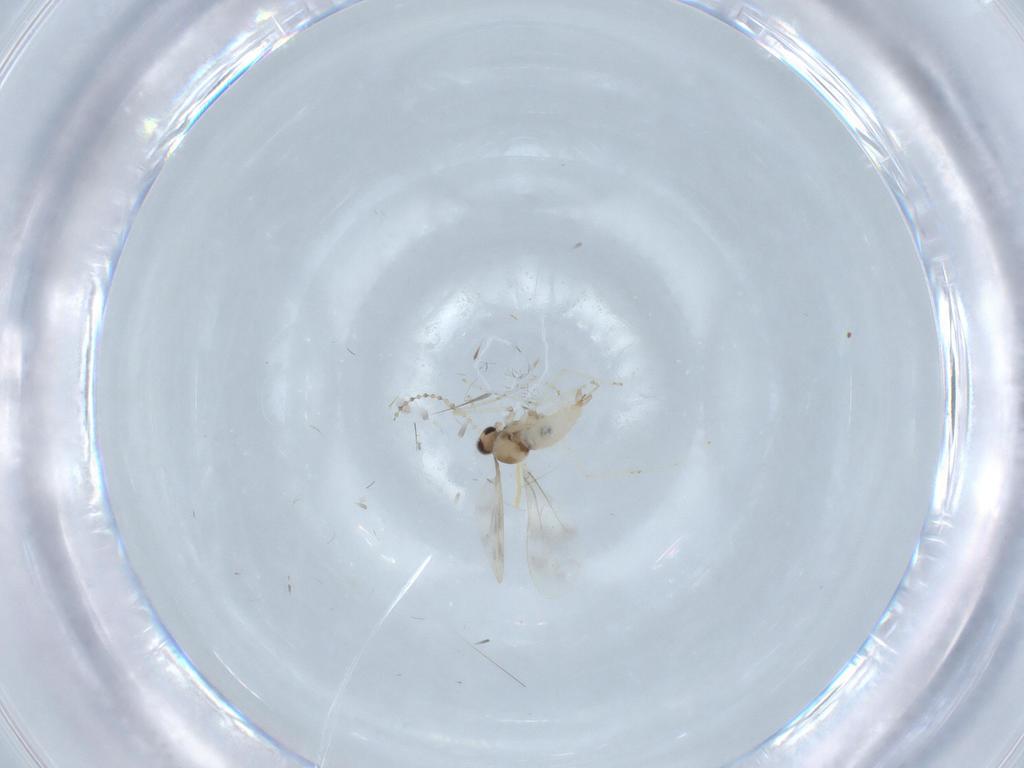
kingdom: Animalia
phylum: Arthropoda
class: Insecta
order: Diptera
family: Cecidomyiidae
